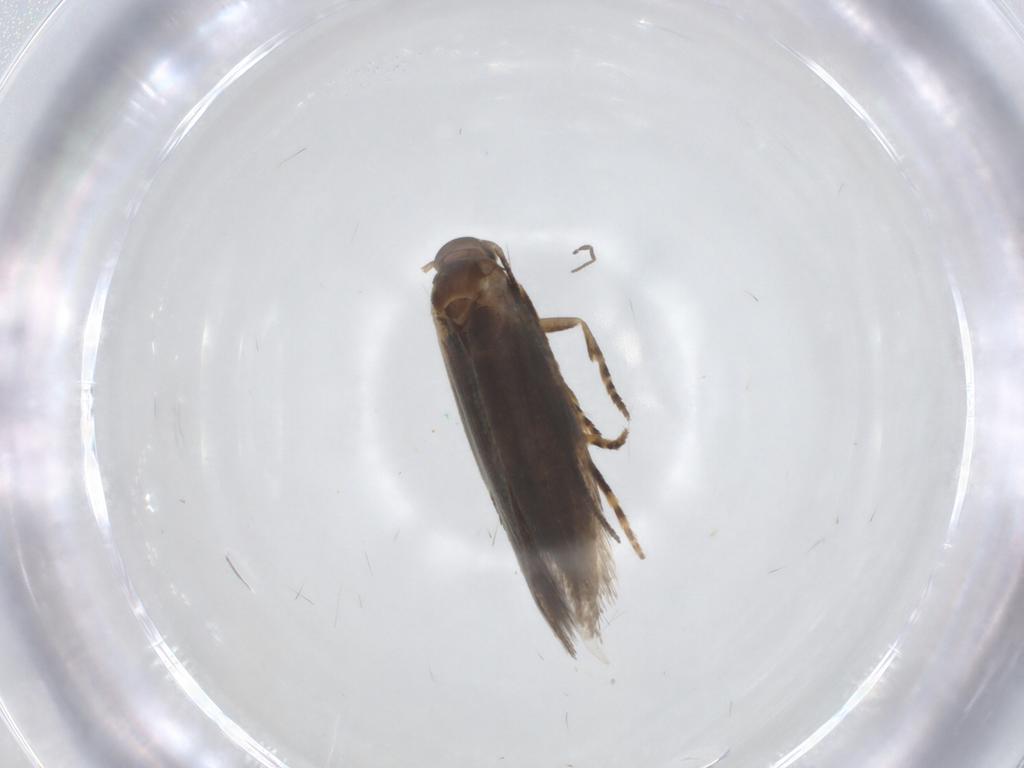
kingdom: Animalia
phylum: Arthropoda
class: Insecta
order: Lepidoptera
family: Elachistidae
